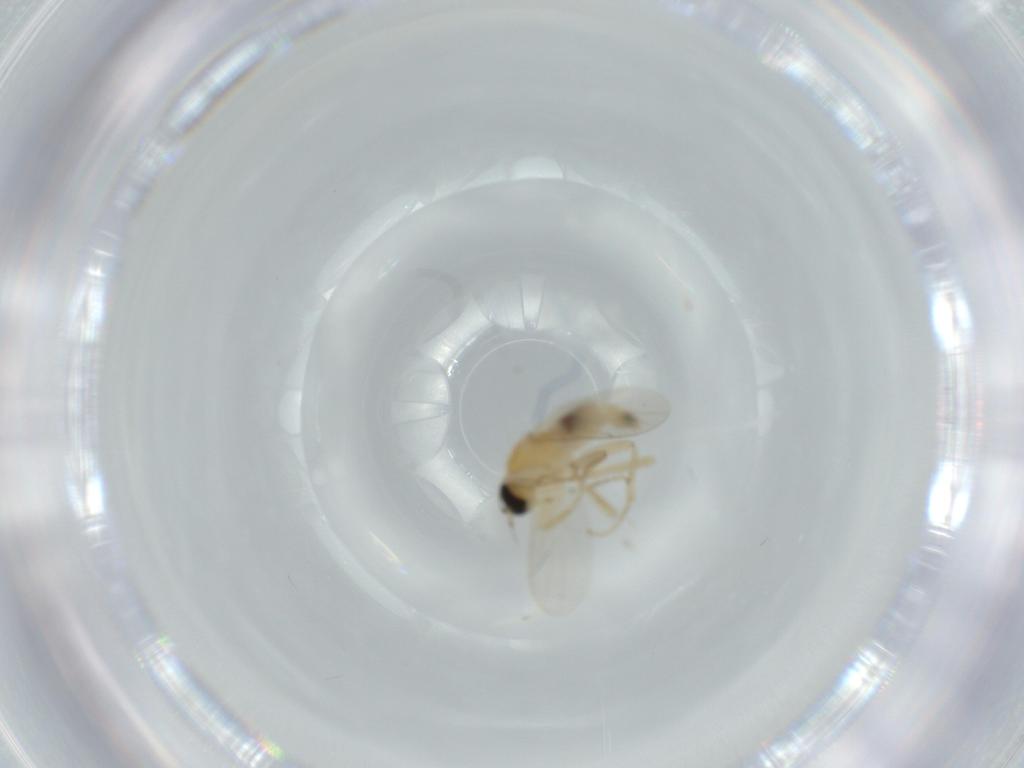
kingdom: Animalia
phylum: Arthropoda
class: Insecta
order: Diptera
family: Hybotidae
